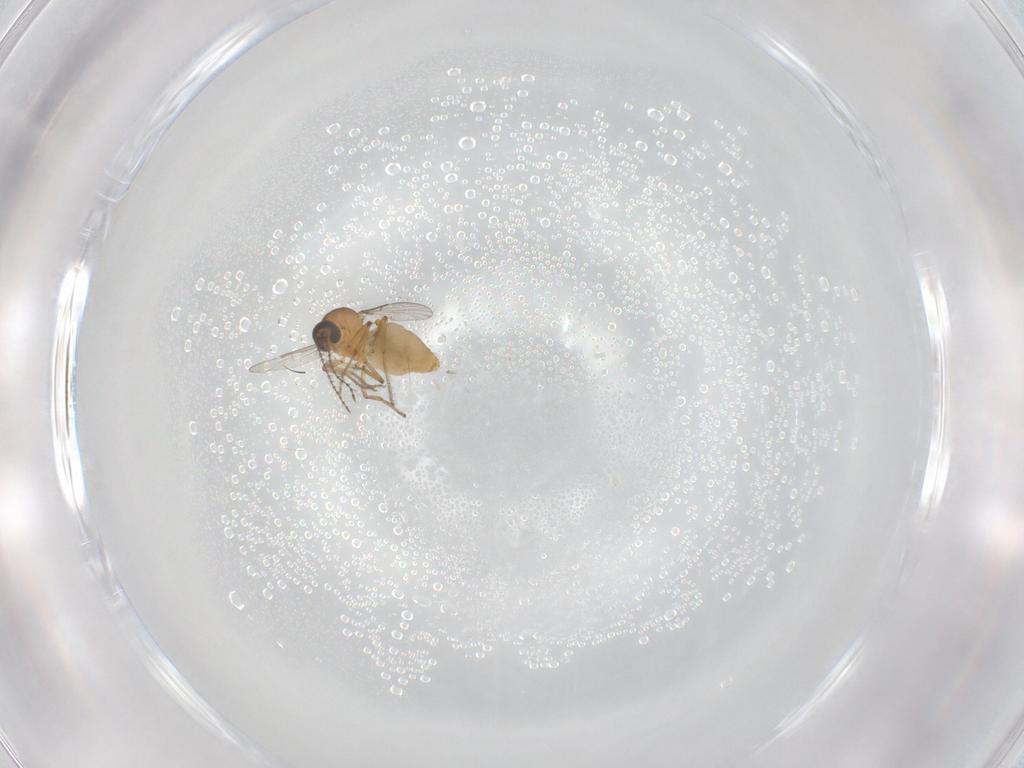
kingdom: Animalia
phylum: Arthropoda
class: Insecta
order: Diptera
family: Ceratopogonidae
